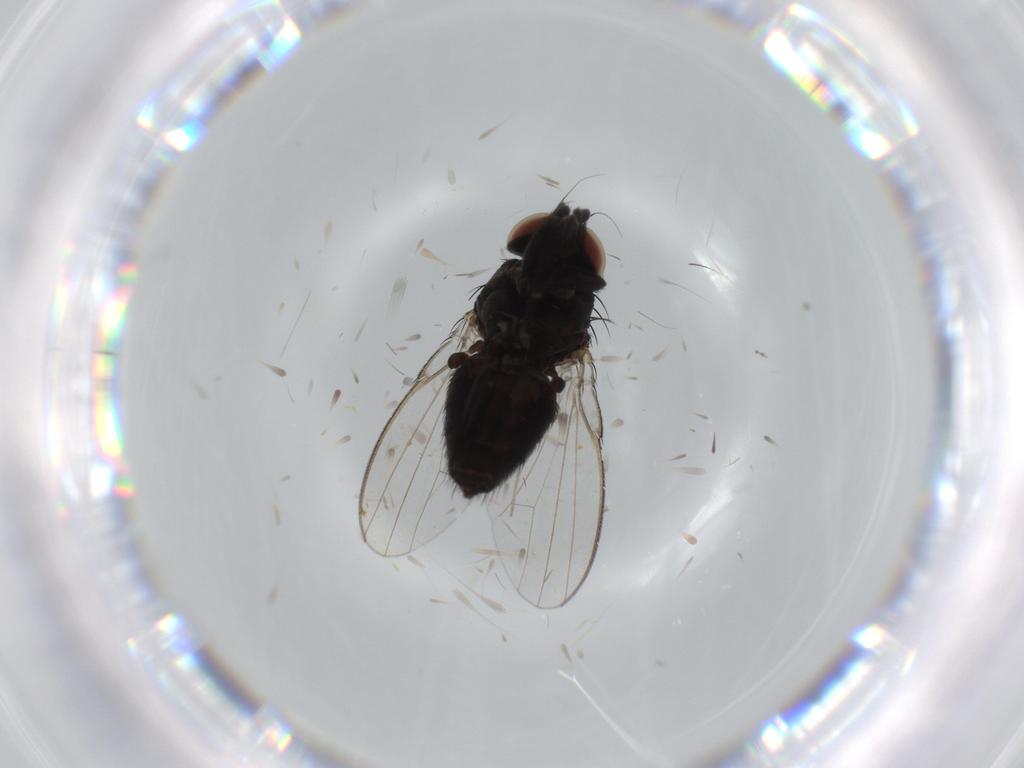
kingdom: Animalia
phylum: Arthropoda
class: Insecta
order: Diptera
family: Milichiidae
